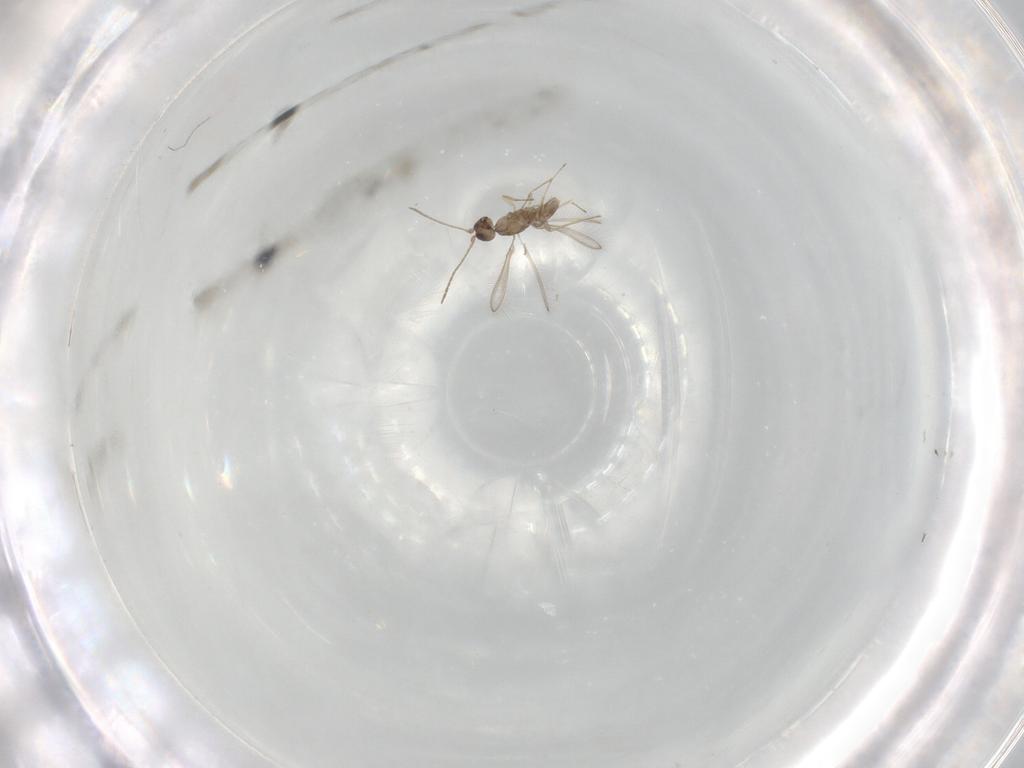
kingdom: Animalia
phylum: Arthropoda
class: Insecta
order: Hymenoptera
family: Mymaridae
